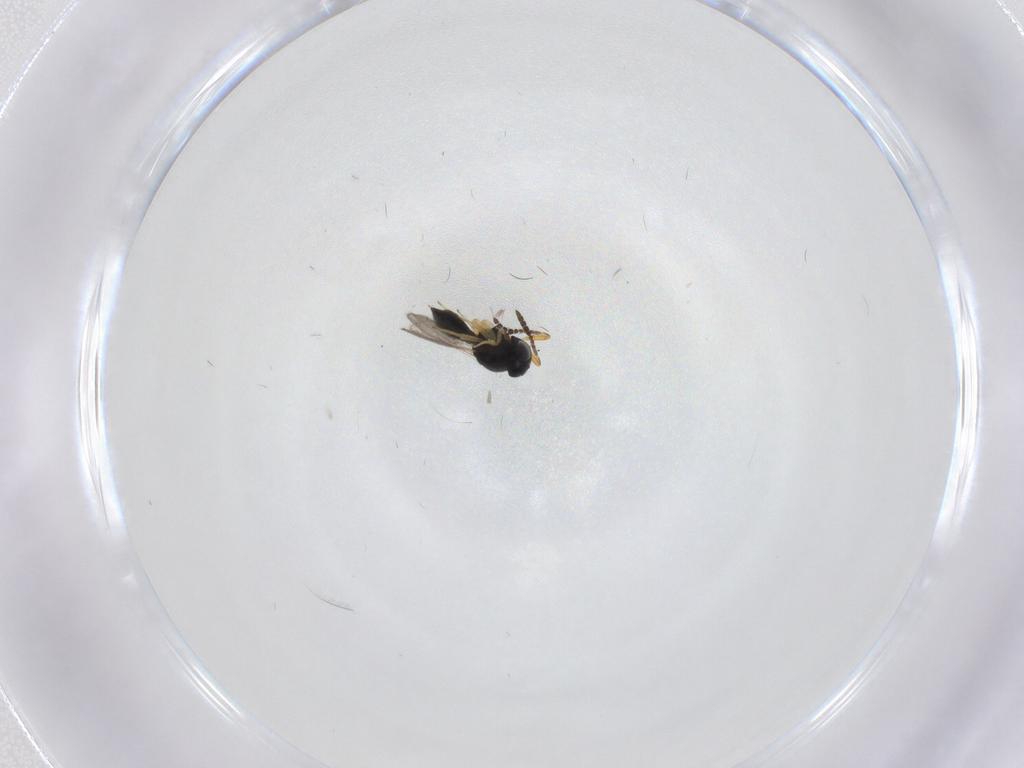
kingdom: Animalia
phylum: Arthropoda
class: Insecta
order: Hymenoptera
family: Scelionidae
